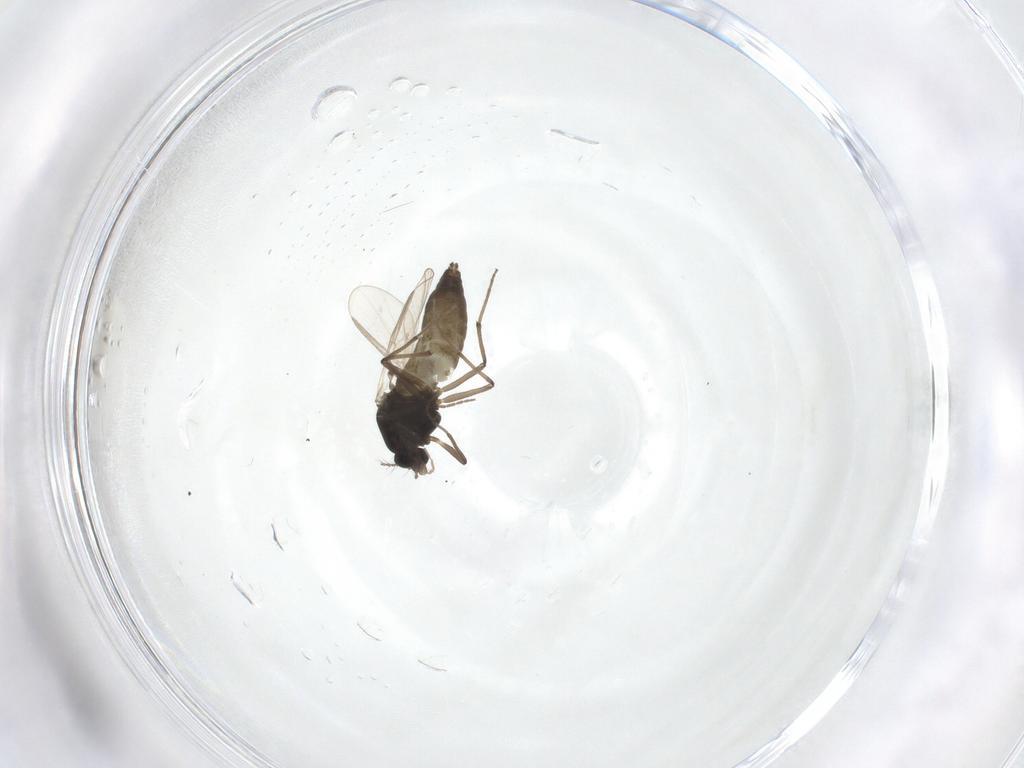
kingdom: Animalia
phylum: Arthropoda
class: Insecta
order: Diptera
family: Chironomidae
